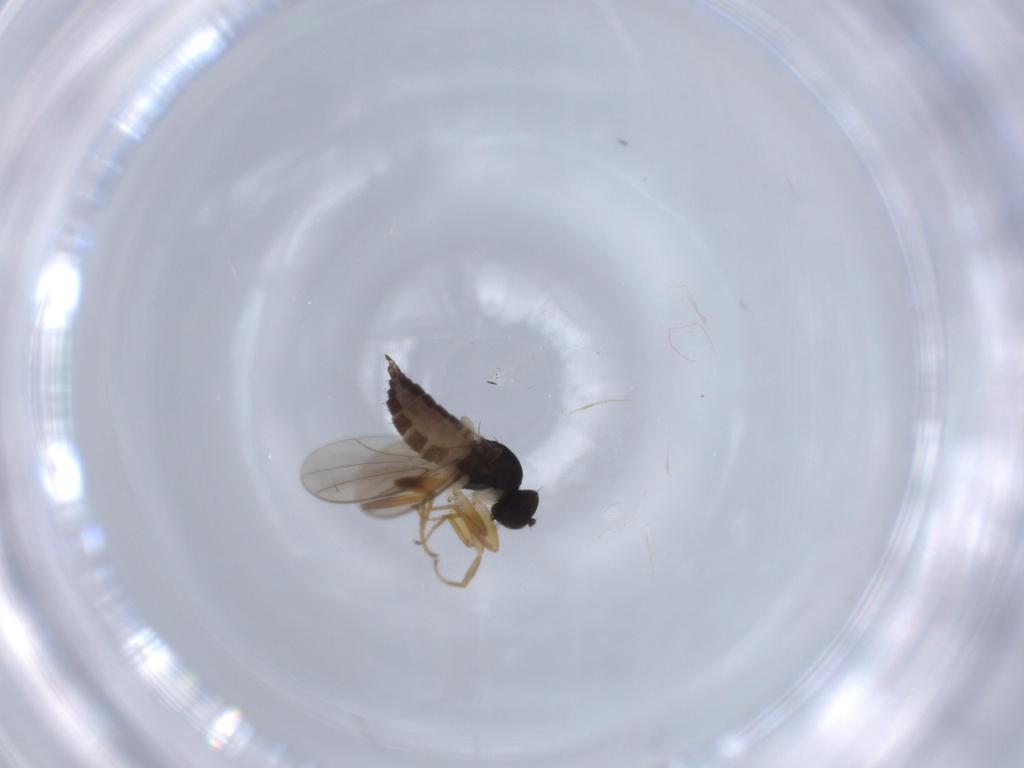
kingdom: Animalia
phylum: Arthropoda
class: Insecta
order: Diptera
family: Hybotidae
